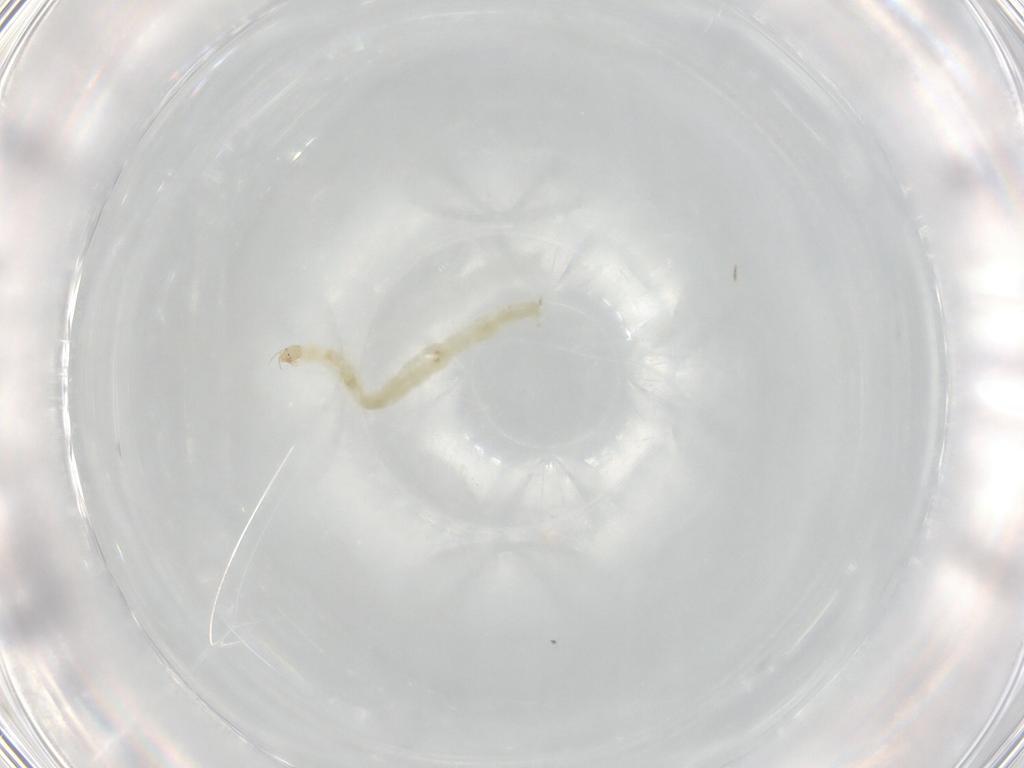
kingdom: Animalia
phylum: Arthropoda
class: Insecta
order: Diptera
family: Chironomidae
